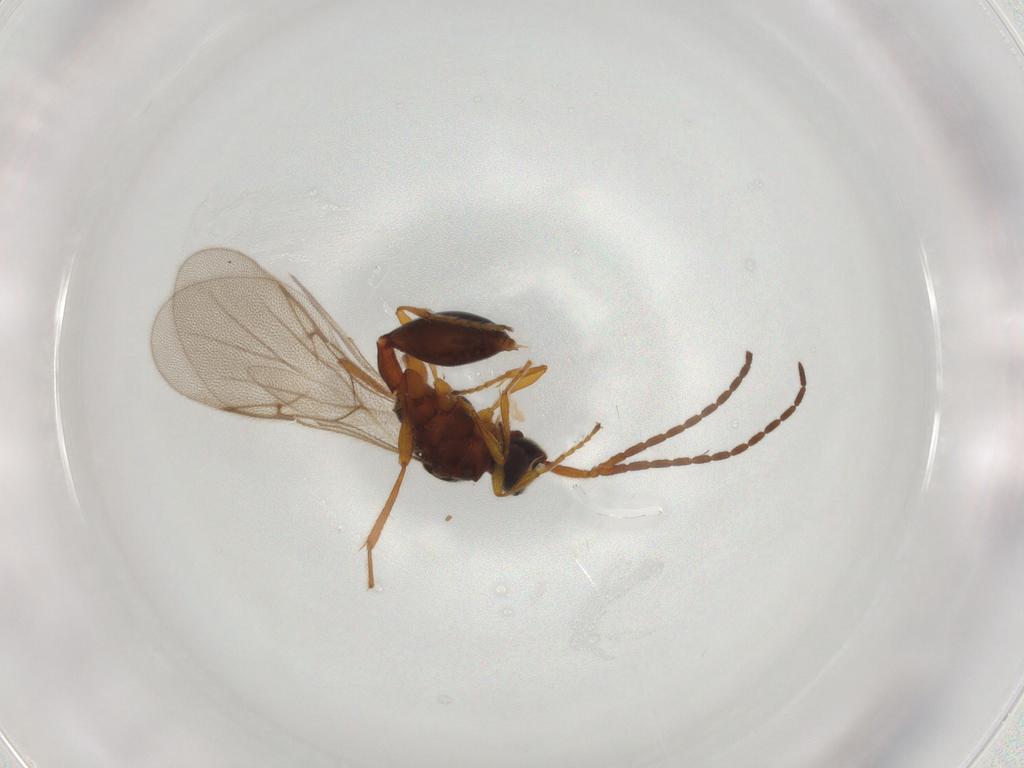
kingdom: Animalia
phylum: Arthropoda
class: Insecta
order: Hymenoptera
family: Diapriidae
